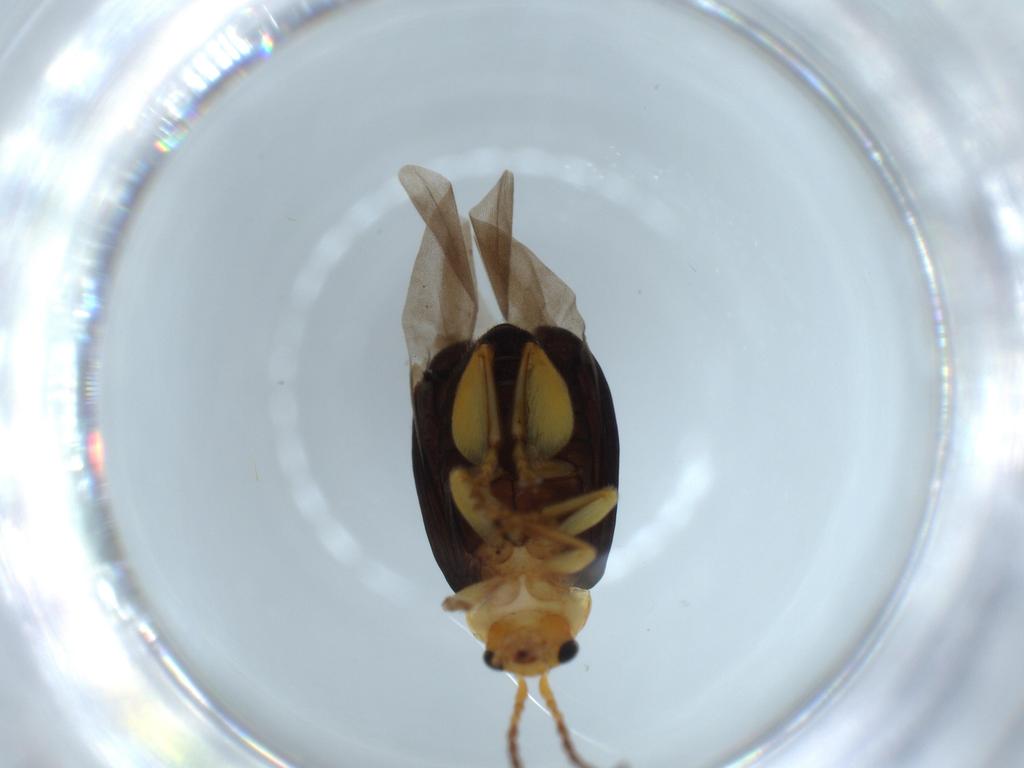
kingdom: Animalia
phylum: Arthropoda
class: Insecta
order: Coleoptera
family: Chrysomelidae
